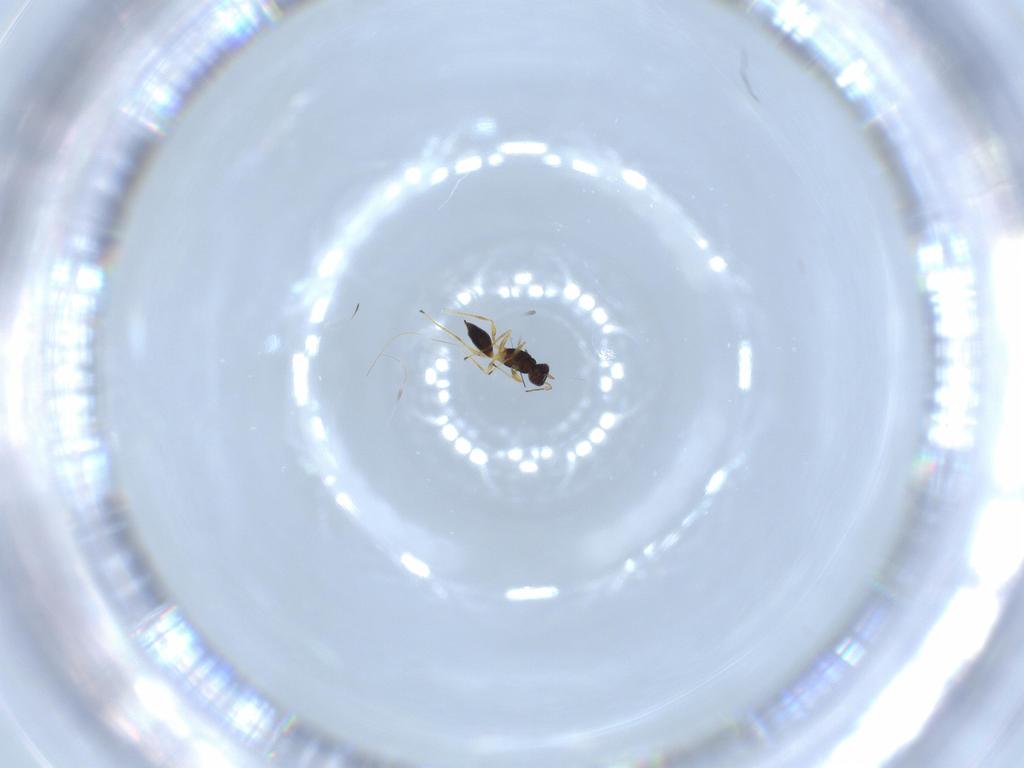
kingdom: Animalia
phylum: Arthropoda
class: Insecta
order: Hymenoptera
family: Mymaridae
